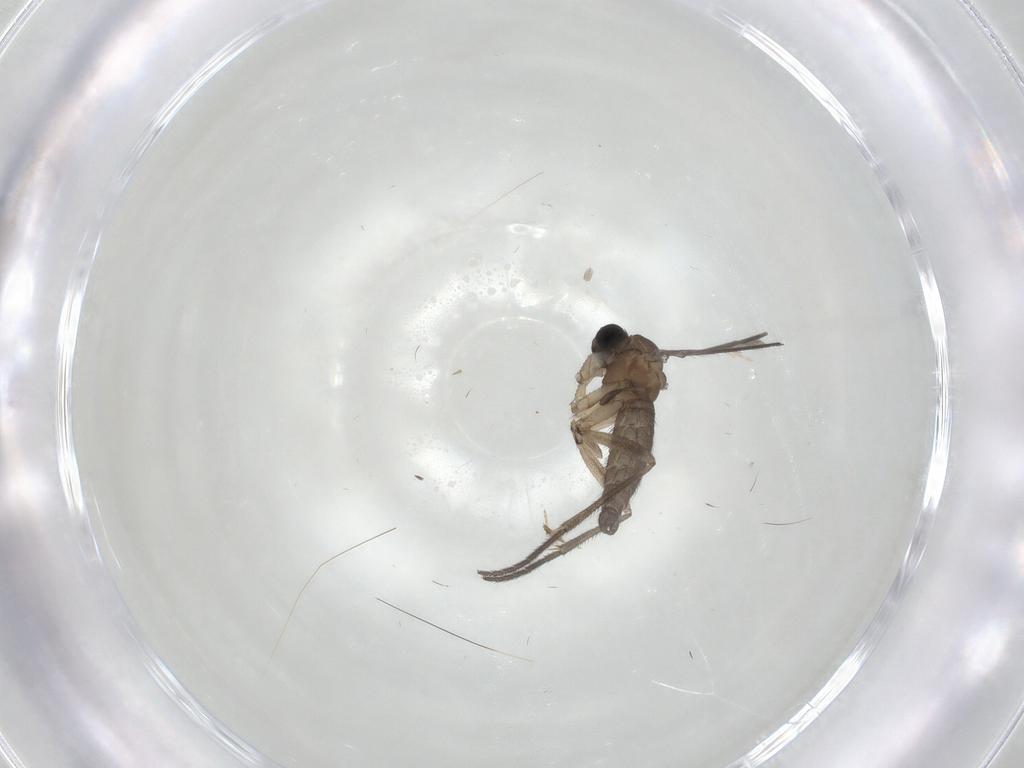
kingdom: Animalia
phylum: Arthropoda
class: Insecta
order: Diptera
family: Sciaridae
